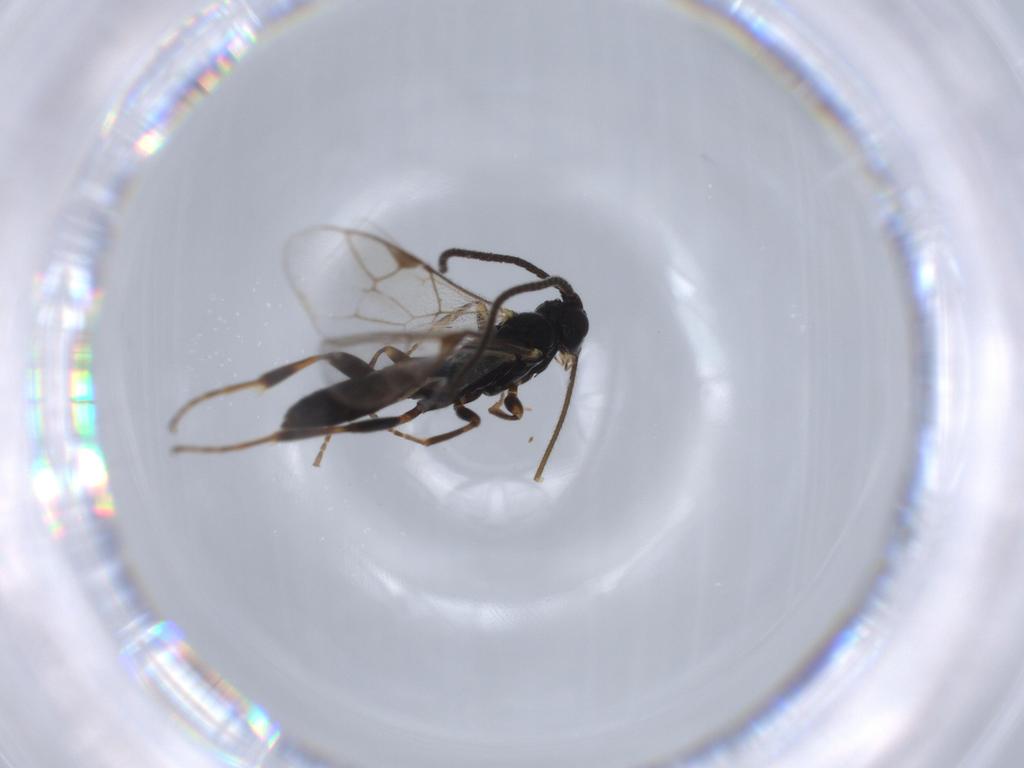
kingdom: Animalia
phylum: Arthropoda
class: Insecta
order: Hymenoptera
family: Ichneumonidae
